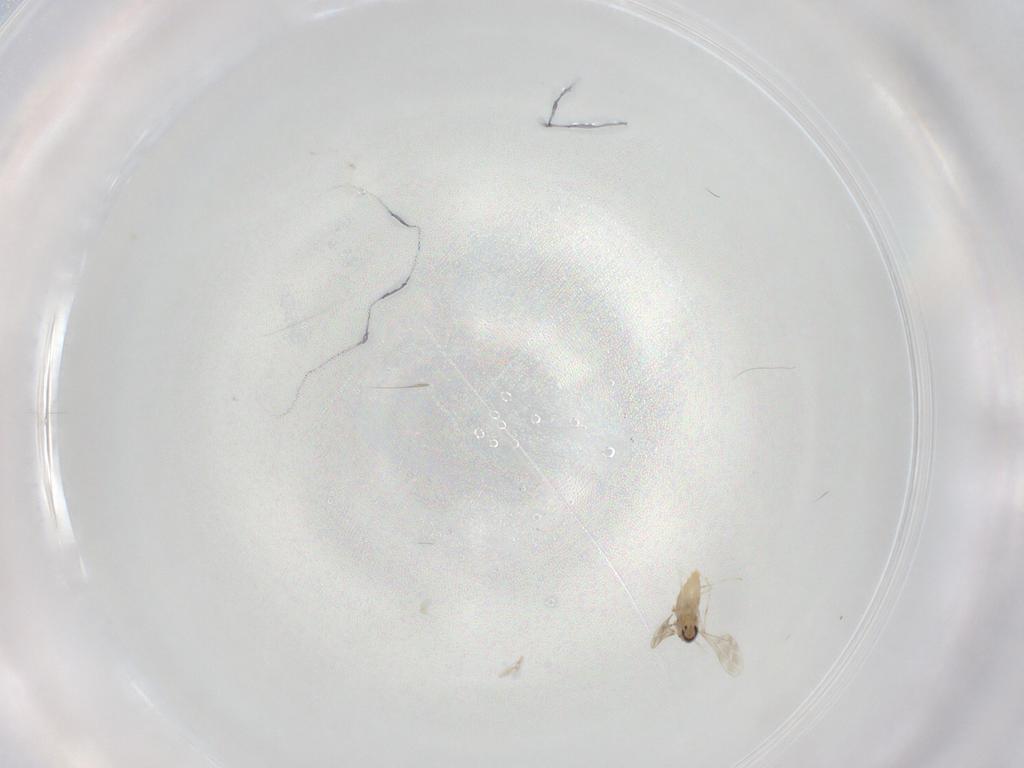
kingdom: Animalia
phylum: Arthropoda
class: Insecta
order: Diptera
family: Cecidomyiidae
